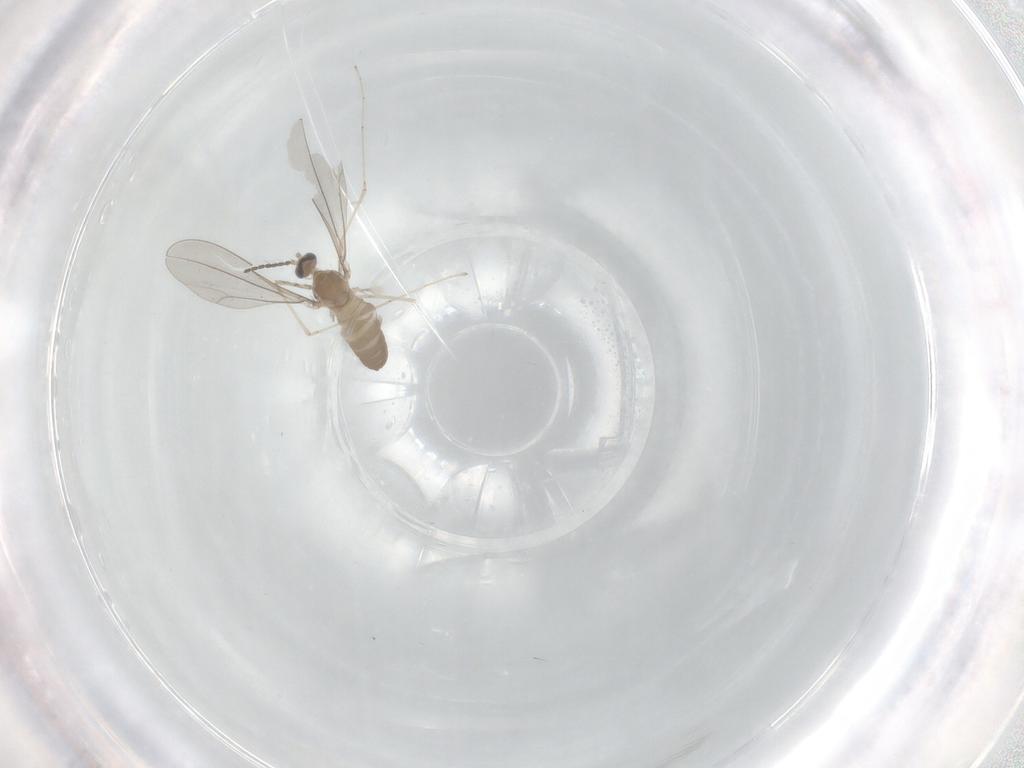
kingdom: Animalia
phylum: Arthropoda
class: Insecta
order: Diptera
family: Cecidomyiidae
